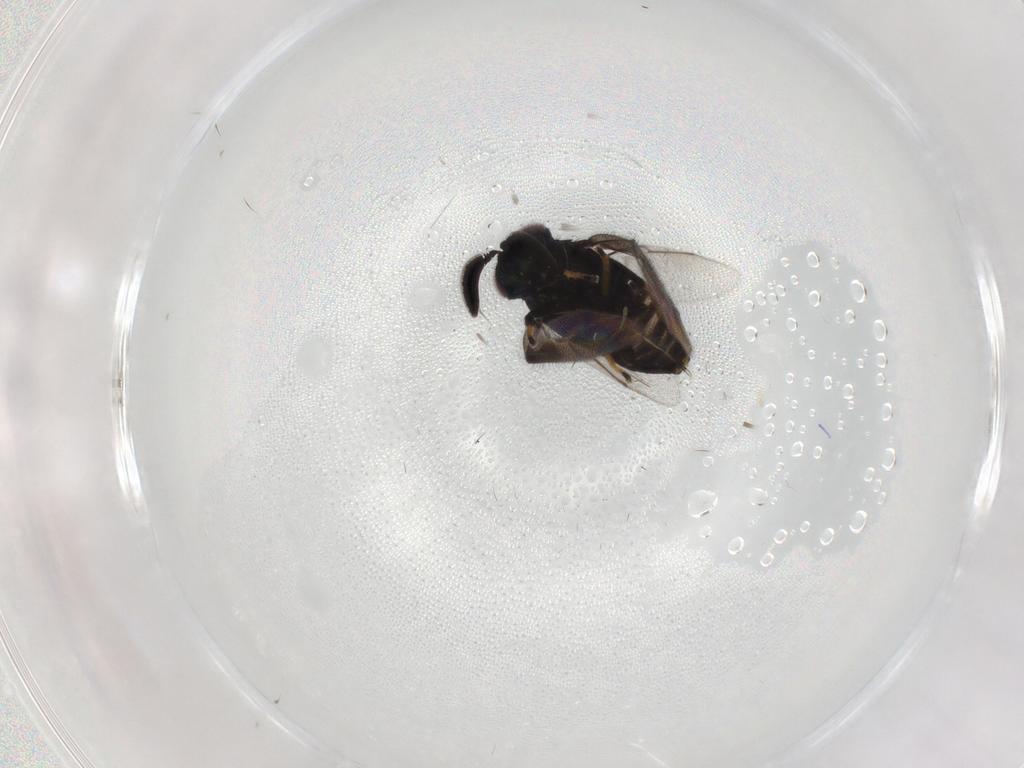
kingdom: Animalia
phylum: Arthropoda
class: Insecta
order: Hymenoptera
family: Encyrtidae
